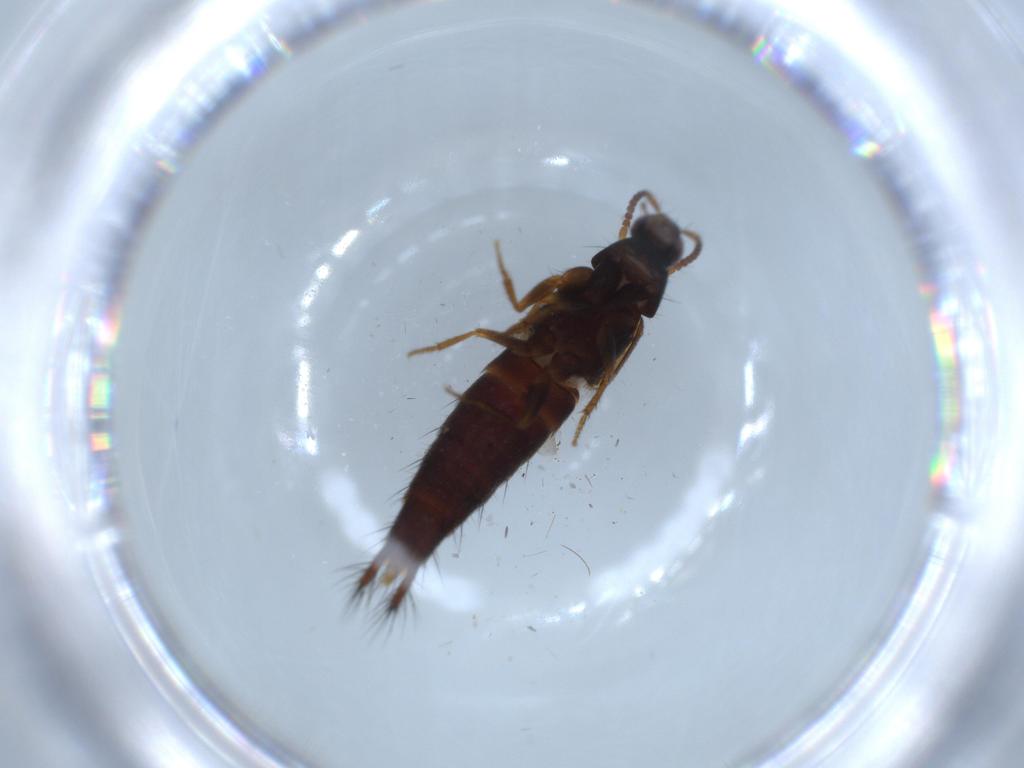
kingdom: Animalia
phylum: Arthropoda
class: Insecta
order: Coleoptera
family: Staphylinidae
